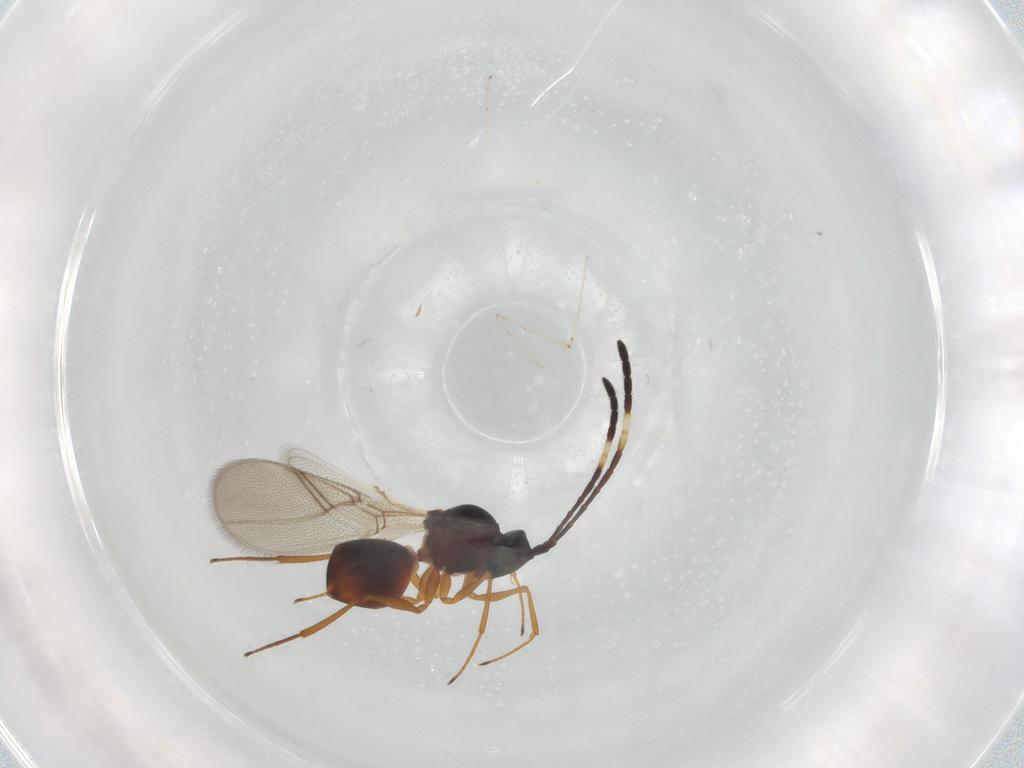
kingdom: Animalia
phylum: Arthropoda
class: Insecta
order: Hymenoptera
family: Figitidae
